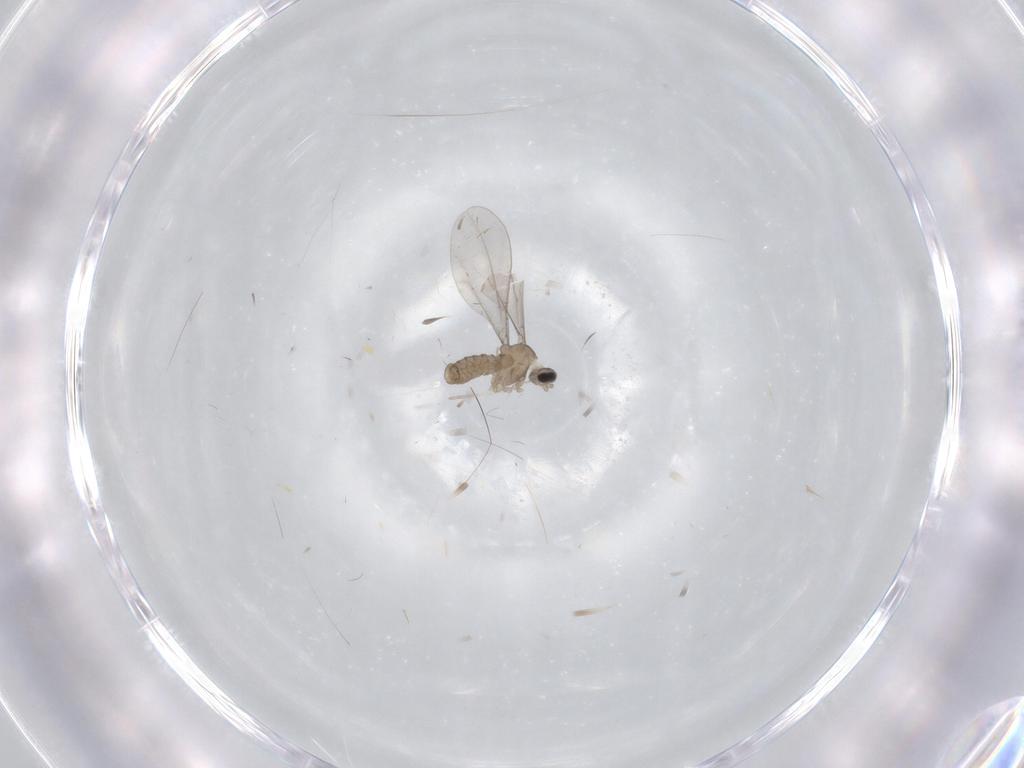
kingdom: Animalia
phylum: Arthropoda
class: Insecta
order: Diptera
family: Cecidomyiidae
